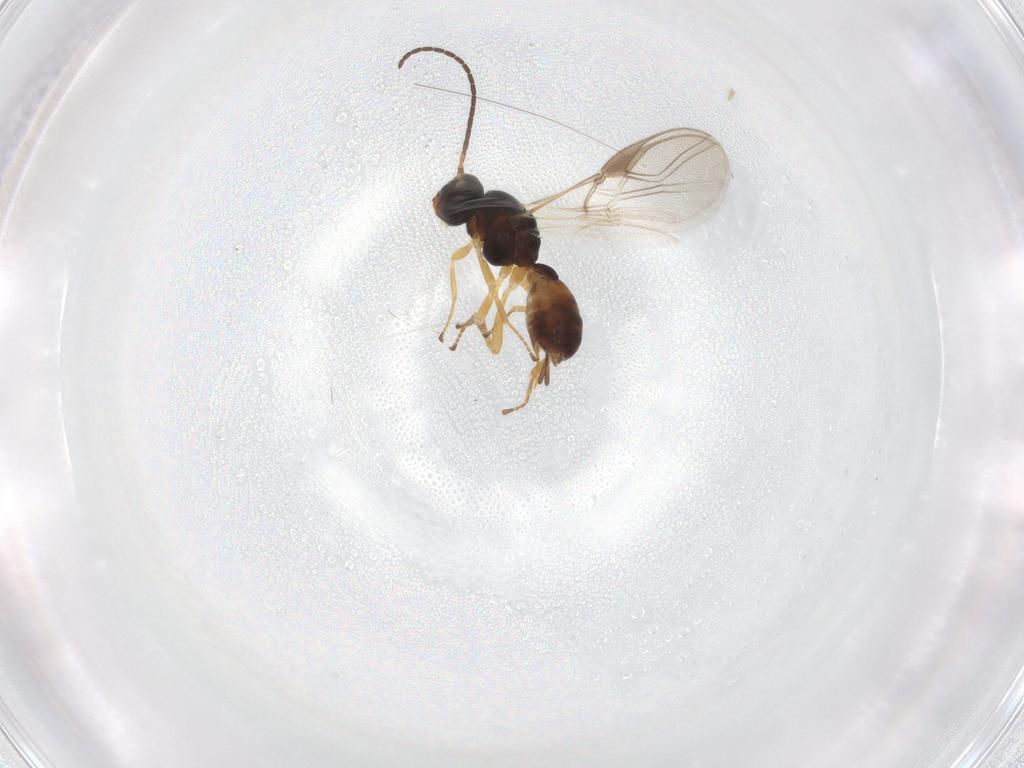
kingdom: Animalia
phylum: Arthropoda
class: Insecta
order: Hymenoptera
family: Braconidae
